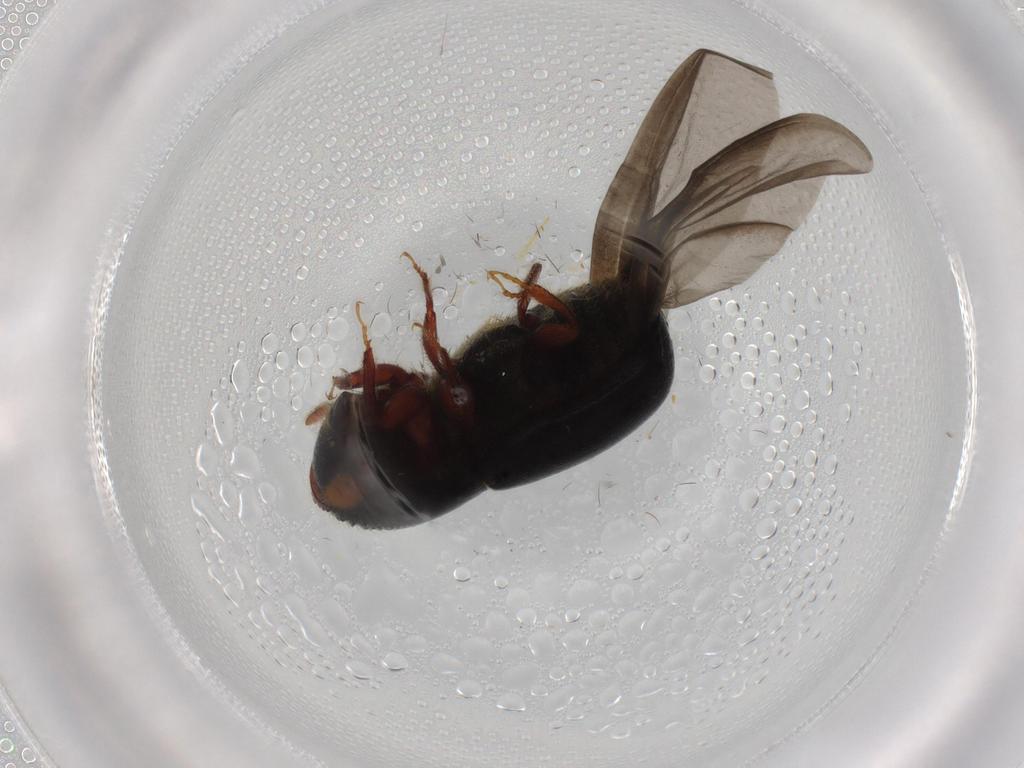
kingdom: Animalia
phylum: Arthropoda
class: Insecta
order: Coleoptera
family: Curculionidae
